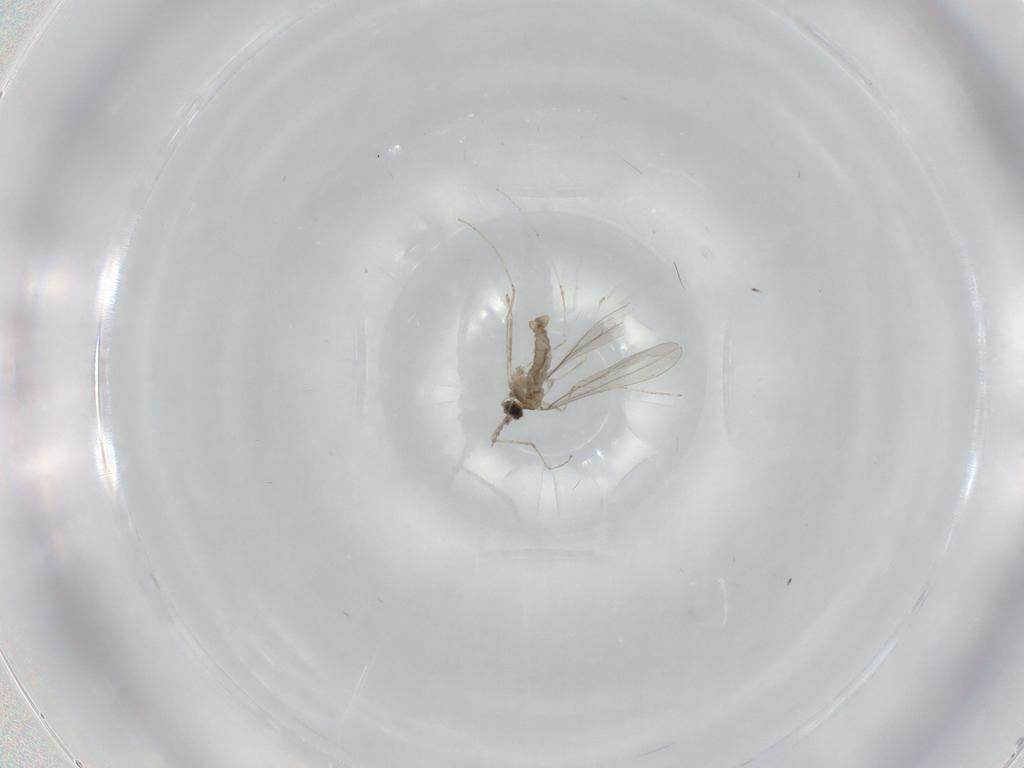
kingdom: Animalia
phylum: Arthropoda
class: Insecta
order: Diptera
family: Cecidomyiidae
